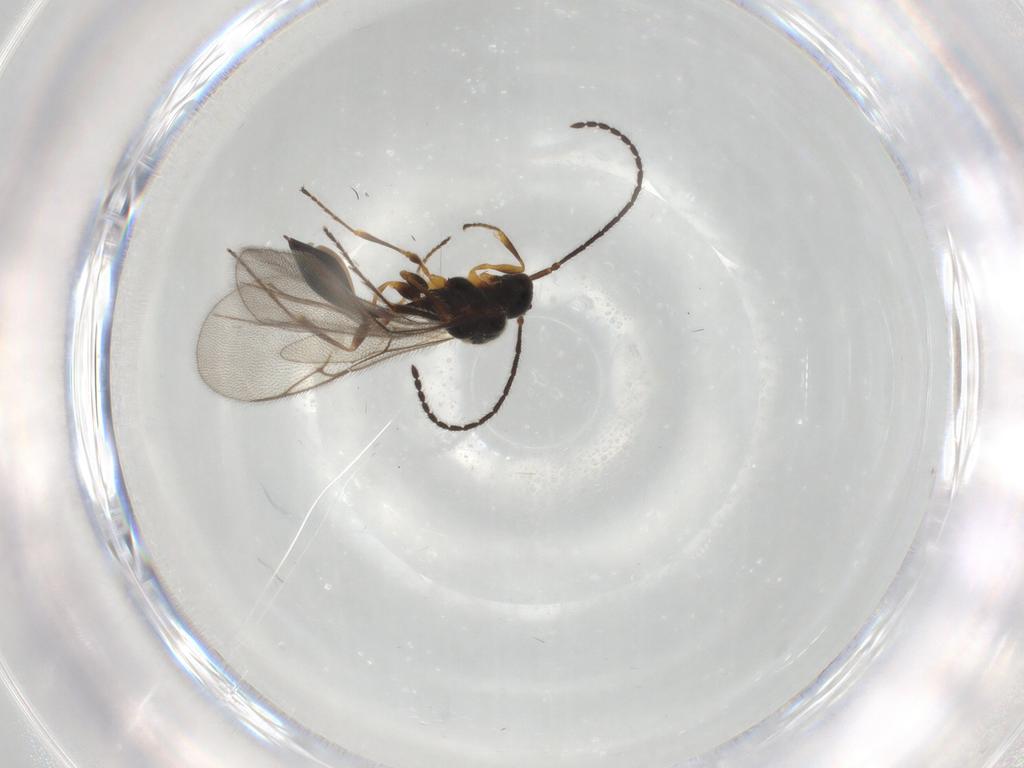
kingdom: Animalia
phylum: Arthropoda
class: Insecta
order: Hymenoptera
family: Diapriidae
